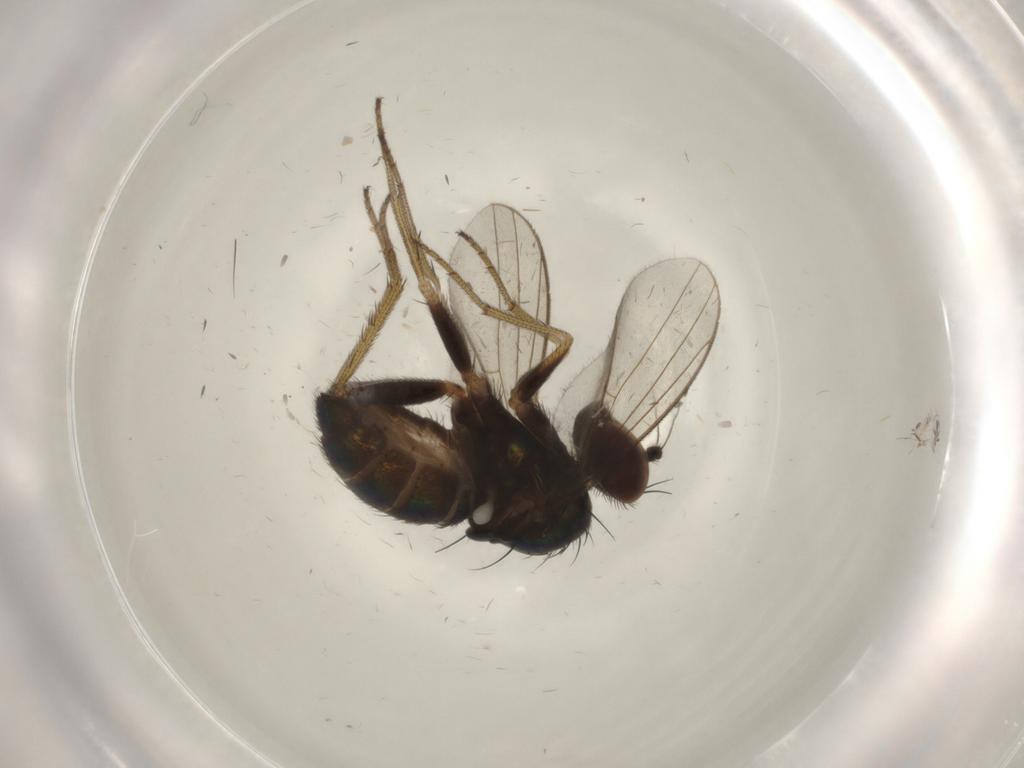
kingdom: Animalia
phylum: Arthropoda
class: Insecta
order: Diptera
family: Dolichopodidae
